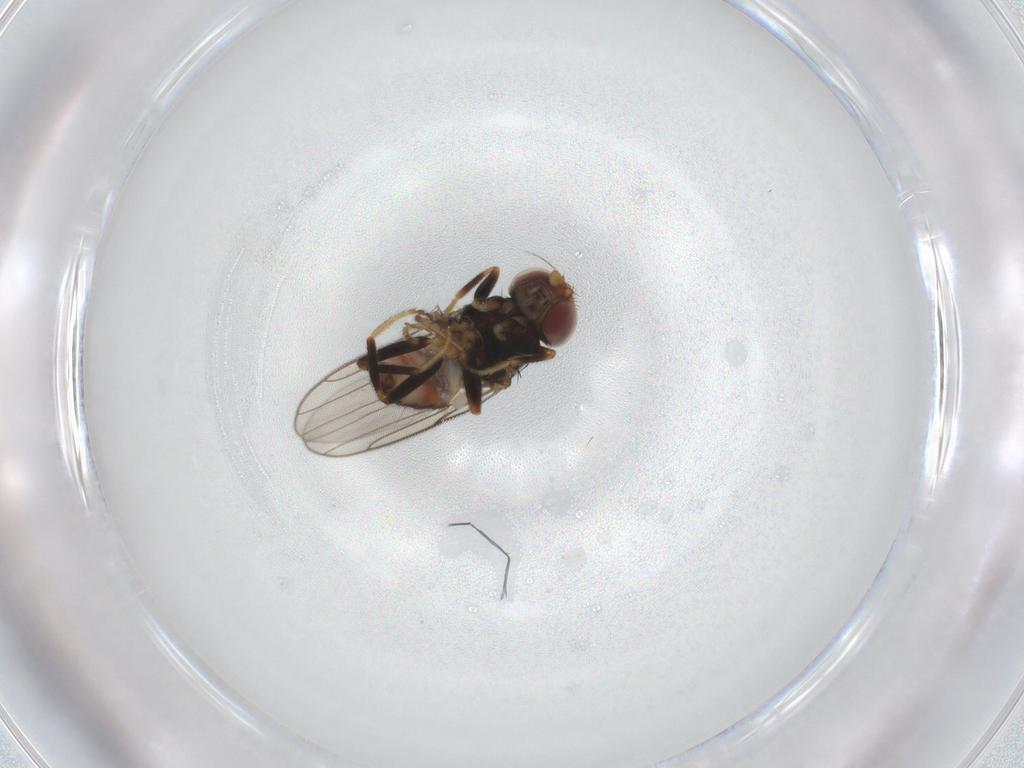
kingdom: Animalia
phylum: Arthropoda
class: Insecta
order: Diptera
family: Chloropidae
